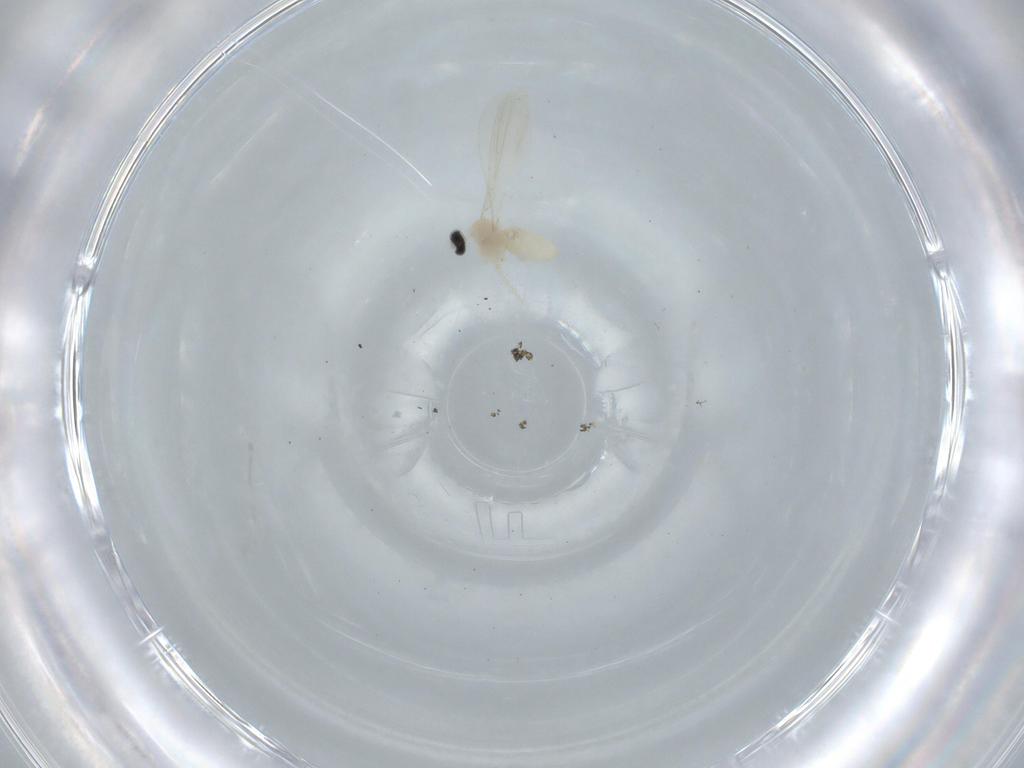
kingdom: Animalia
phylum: Arthropoda
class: Insecta
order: Diptera
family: Cecidomyiidae
